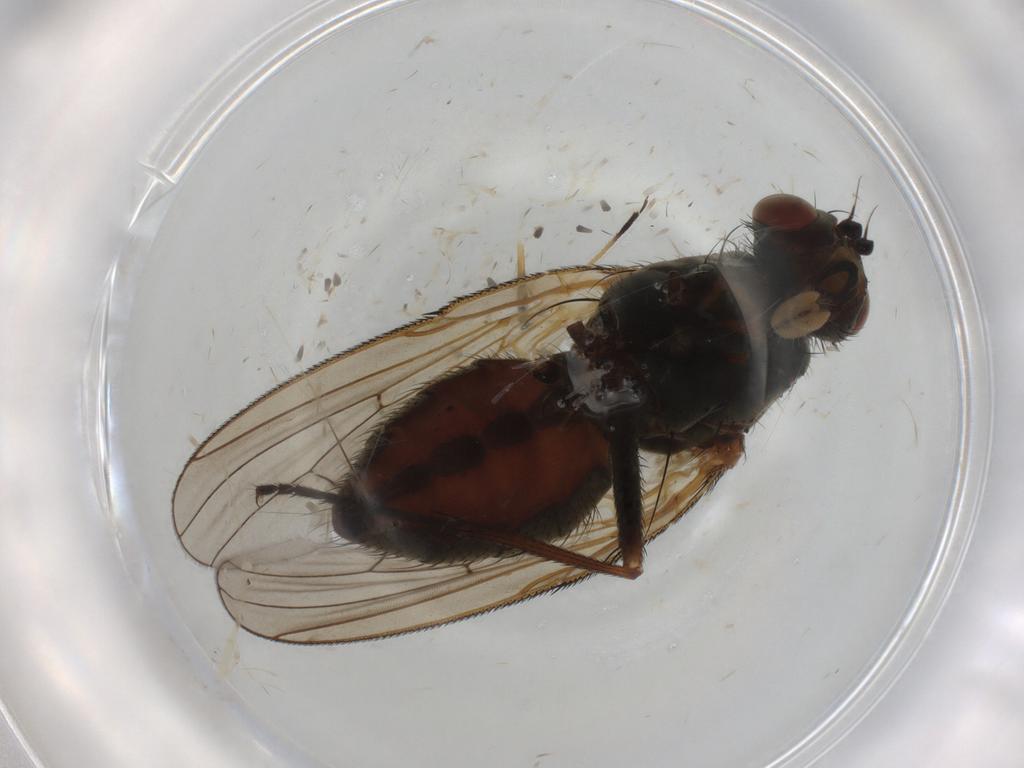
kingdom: Animalia
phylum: Arthropoda
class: Insecta
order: Diptera
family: Anthomyiidae
